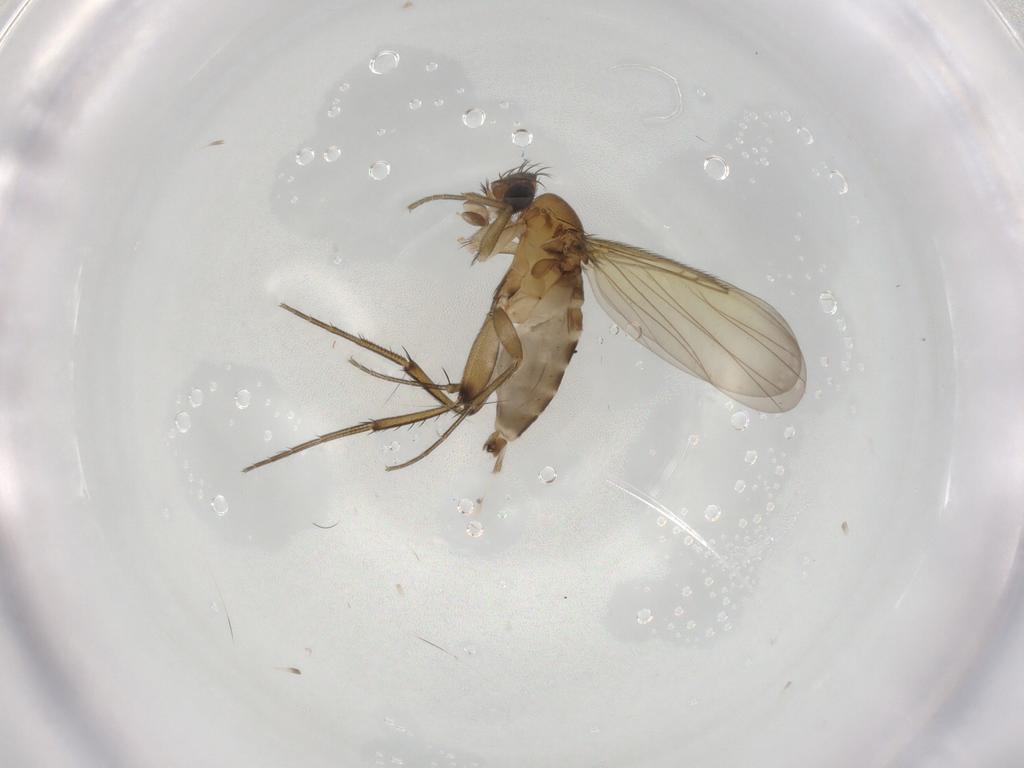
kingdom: Animalia
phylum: Arthropoda
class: Insecta
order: Diptera
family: Phoridae
